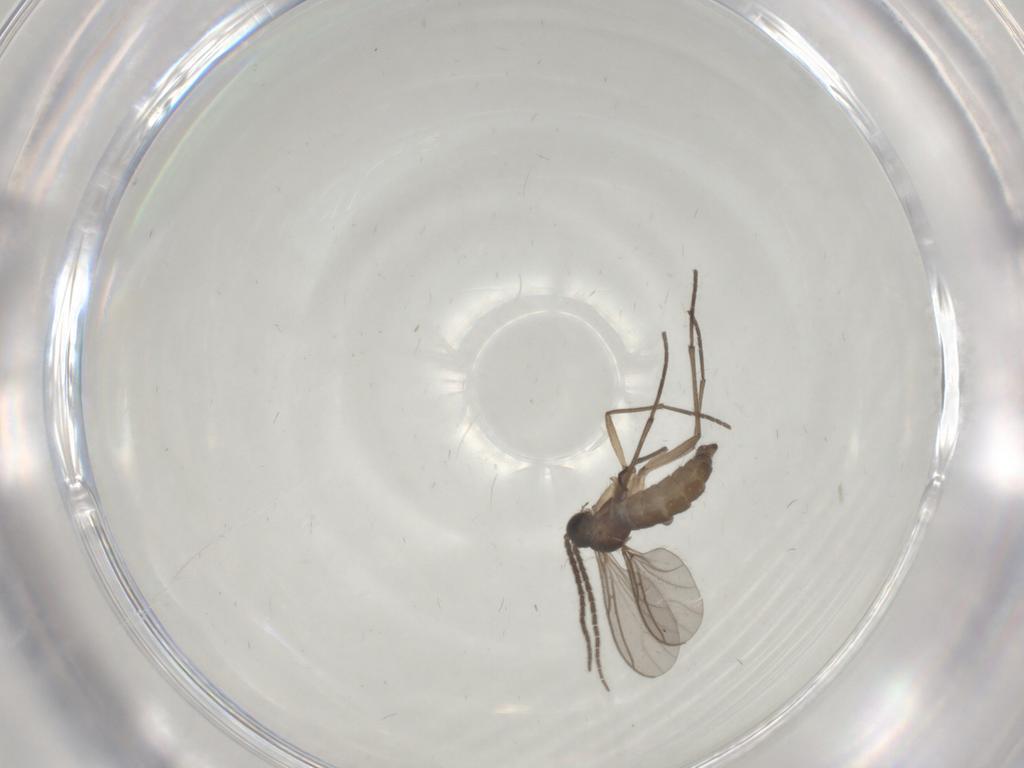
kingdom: Animalia
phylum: Arthropoda
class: Insecta
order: Diptera
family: Sciaridae
